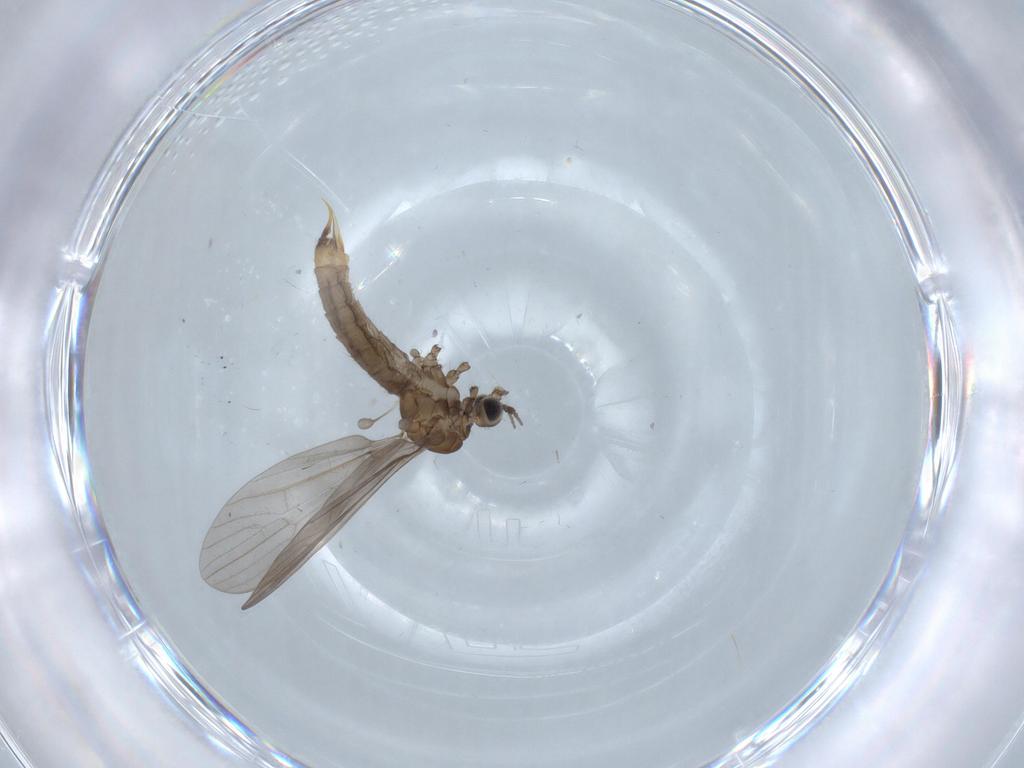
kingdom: Animalia
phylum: Arthropoda
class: Insecta
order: Diptera
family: Limoniidae
